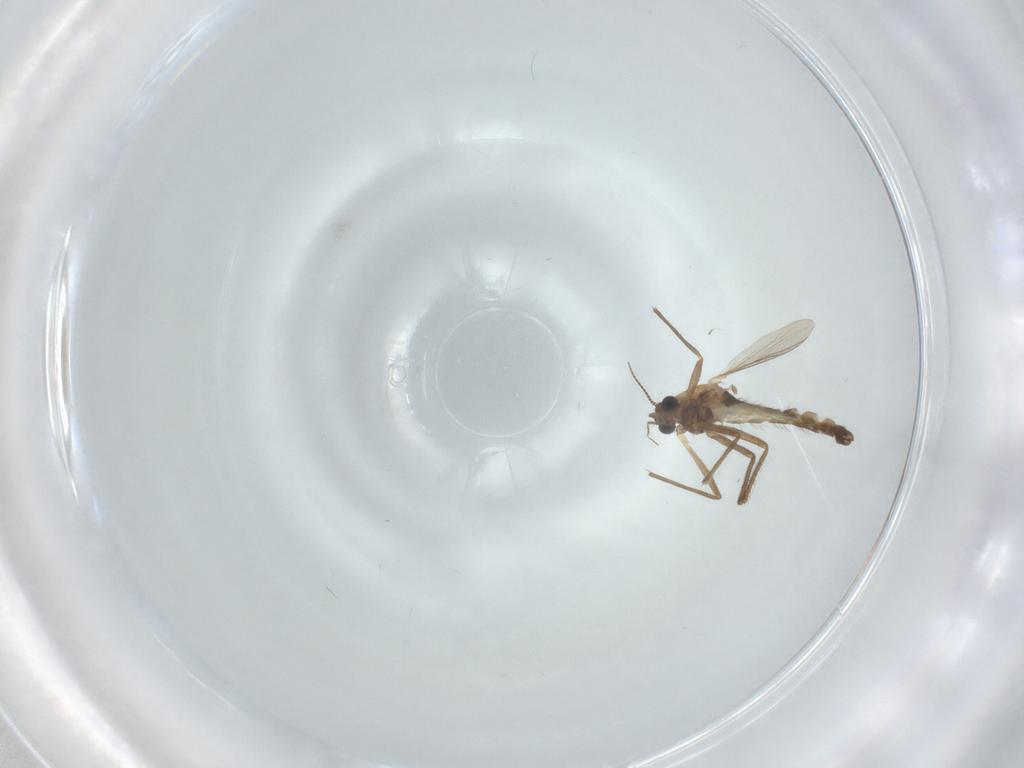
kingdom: Animalia
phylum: Arthropoda
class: Insecta
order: Diptera
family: Chironomidae
